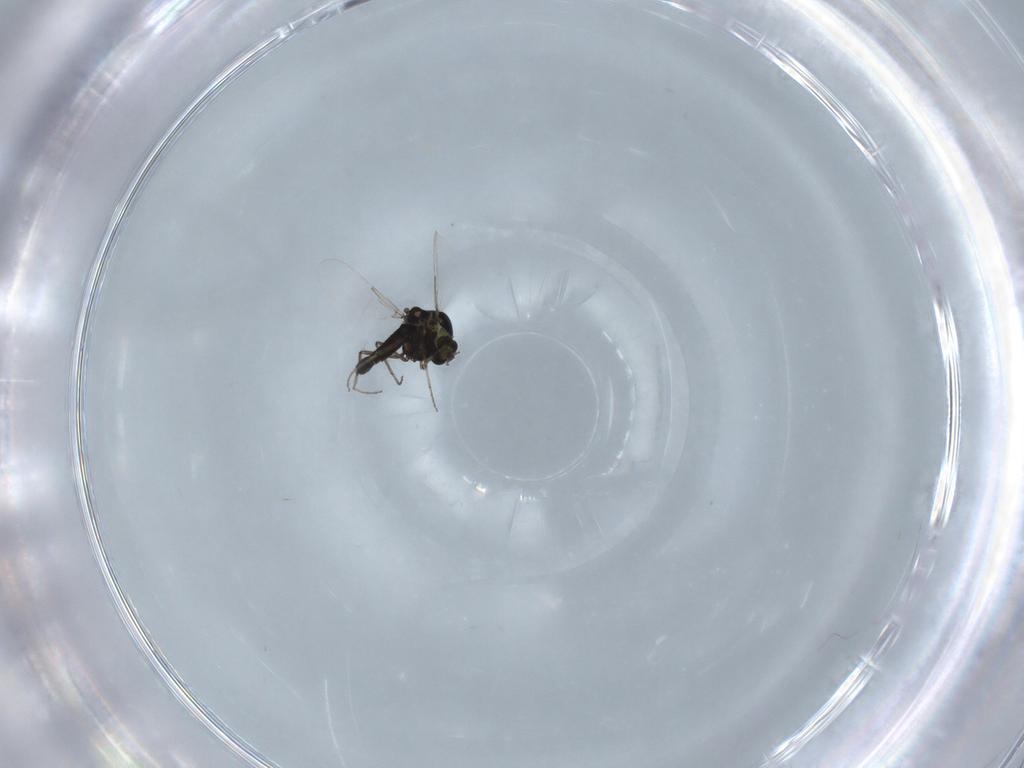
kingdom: Animalia
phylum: Arthropoda
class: Insecta
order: Diptera
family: Ceratopogonidae
